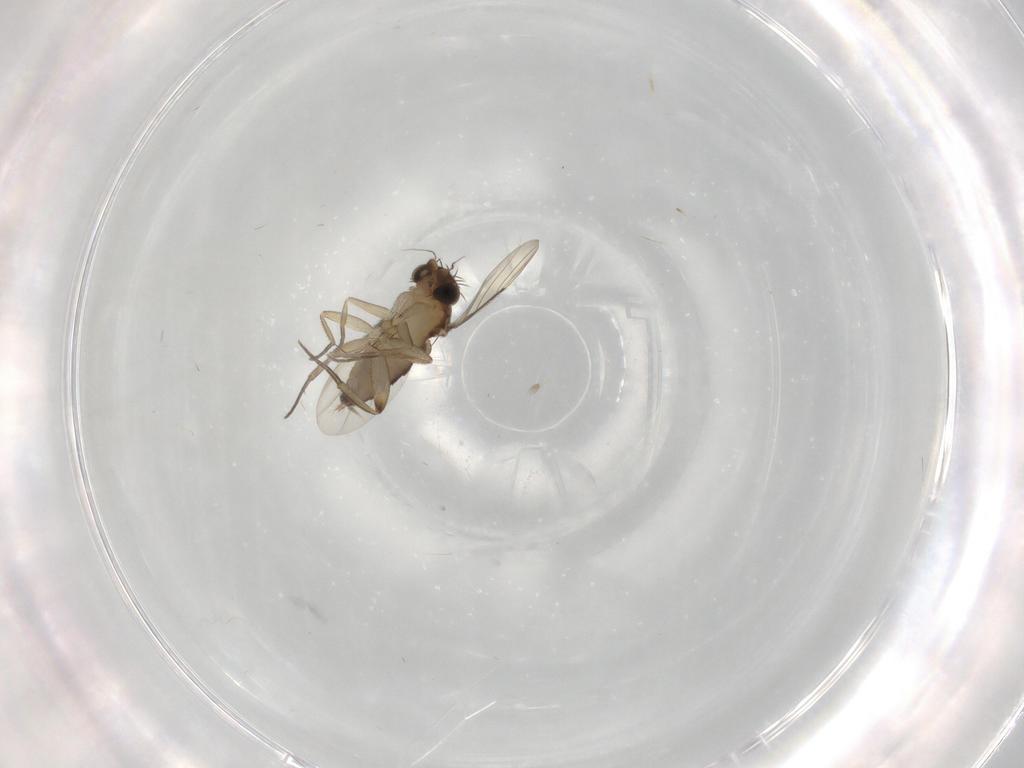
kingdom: Animalia
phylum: Arthropoda
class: Insecta
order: Diptera
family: Phoridae
